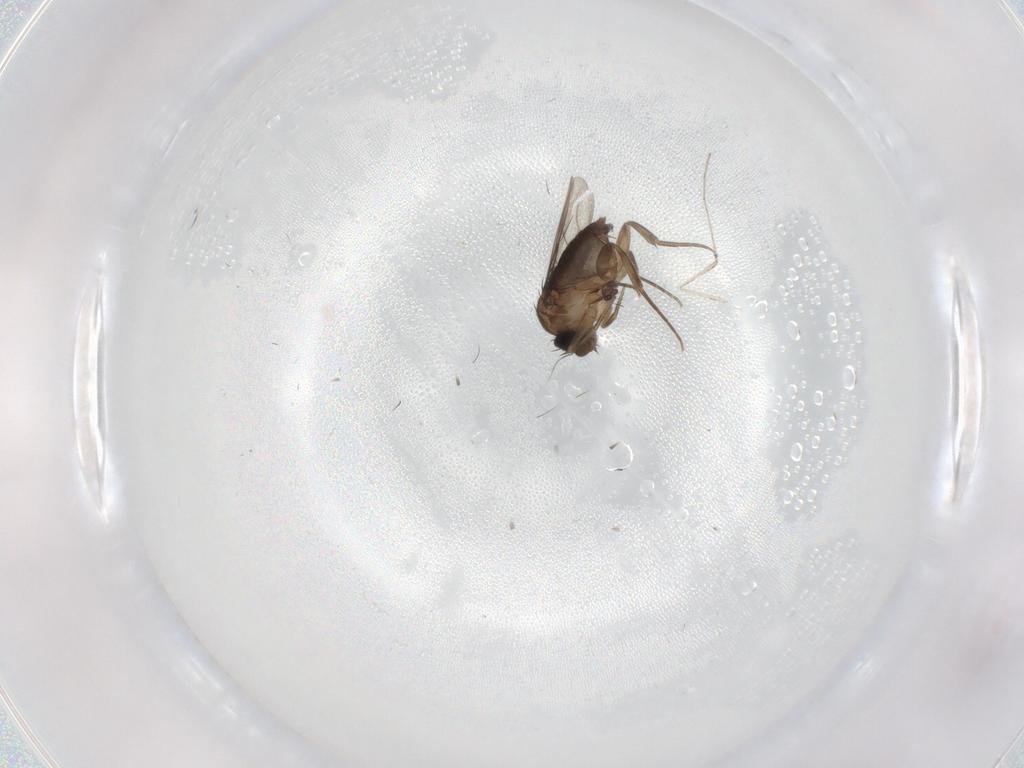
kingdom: Animalia
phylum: Arthropoda
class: Insecta
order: Diptera
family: Phoridae
